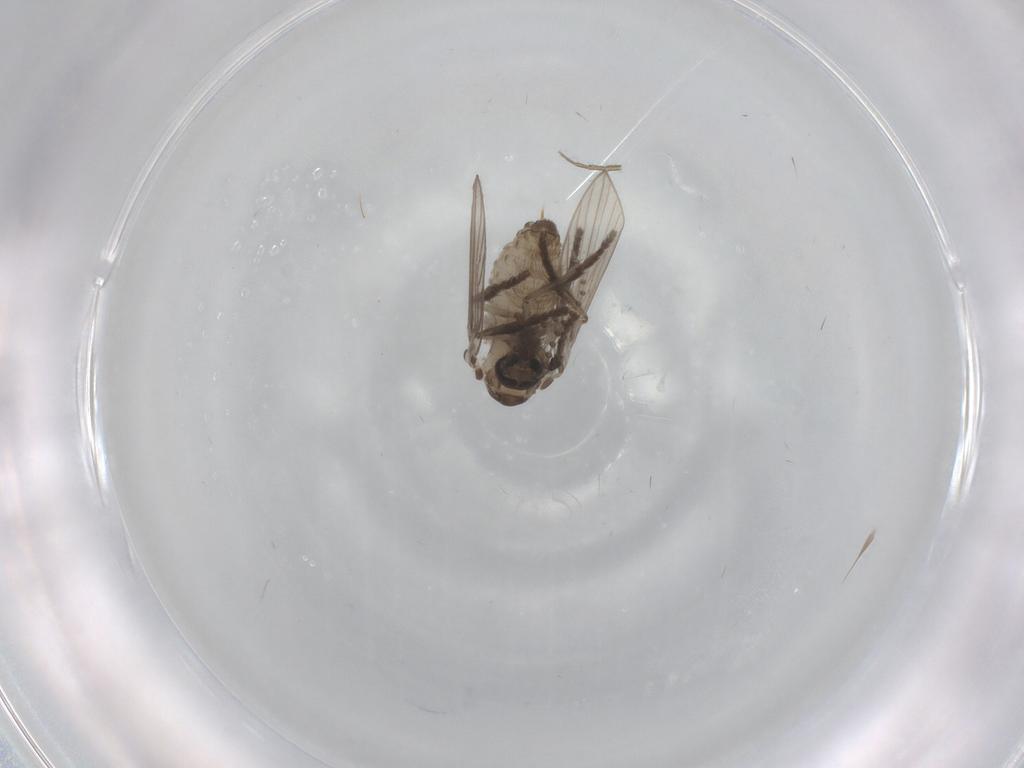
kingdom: Animalia
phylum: Arthropoda
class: Insecta
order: Diptera
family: Psychodidae
